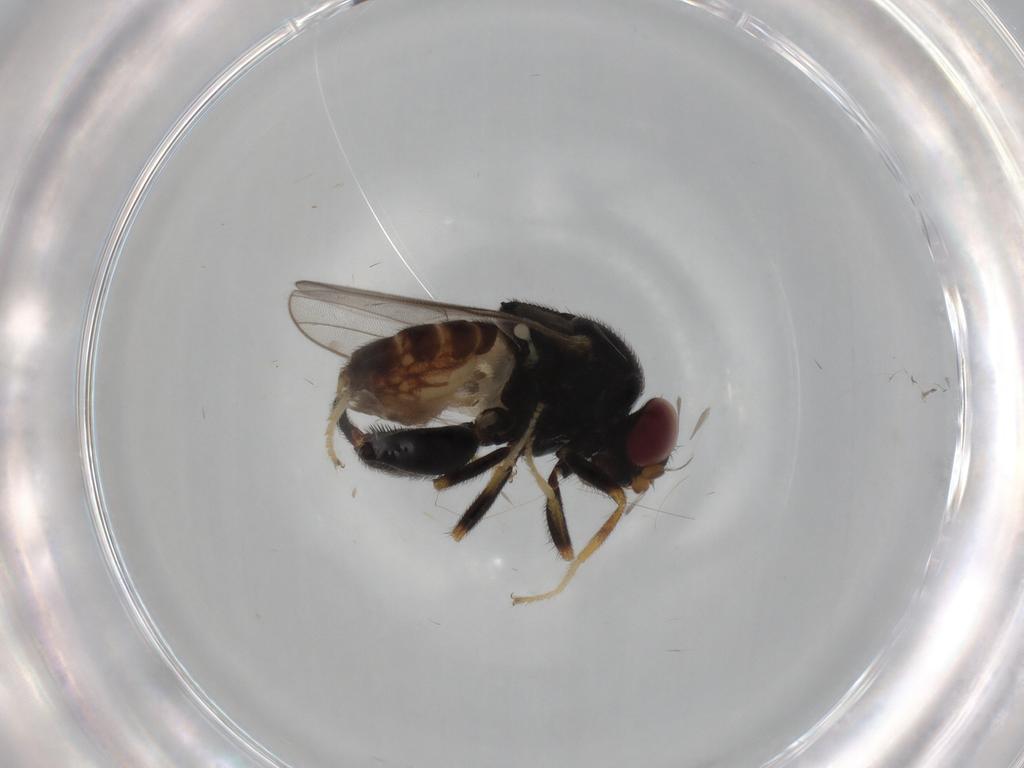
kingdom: Animalia
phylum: Arthropoda
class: Insecta
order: Diptera
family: Chloropidae
